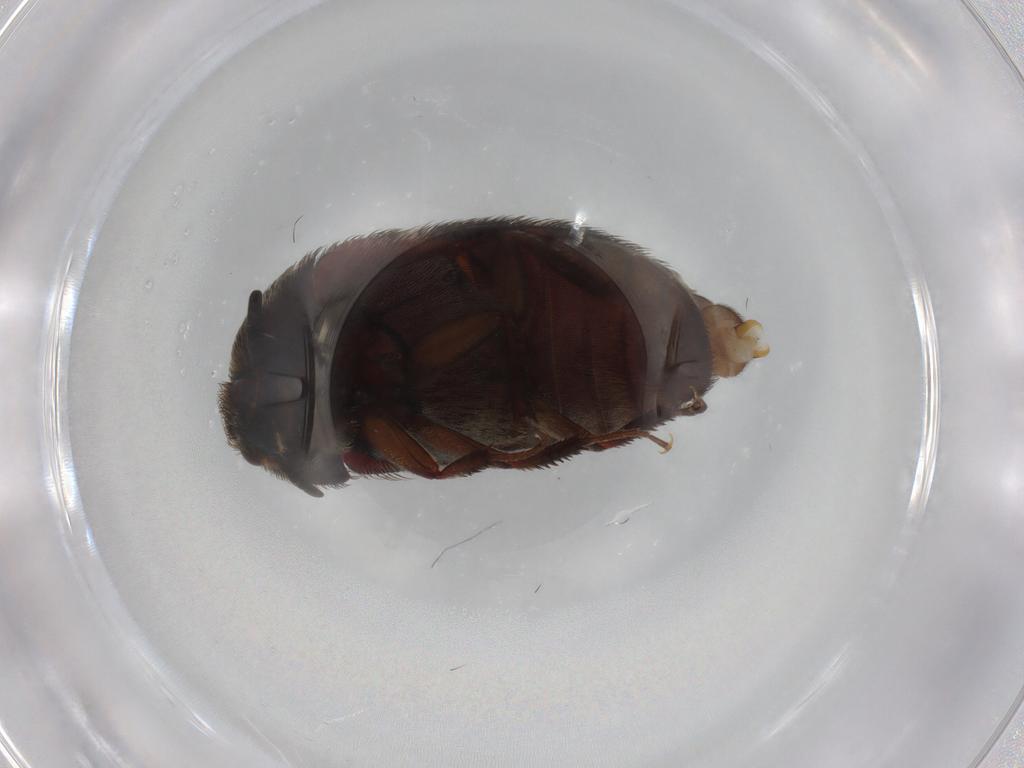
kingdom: Animalia
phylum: Arthropoda
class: Insecta
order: Coleoptera
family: Dermestidae
